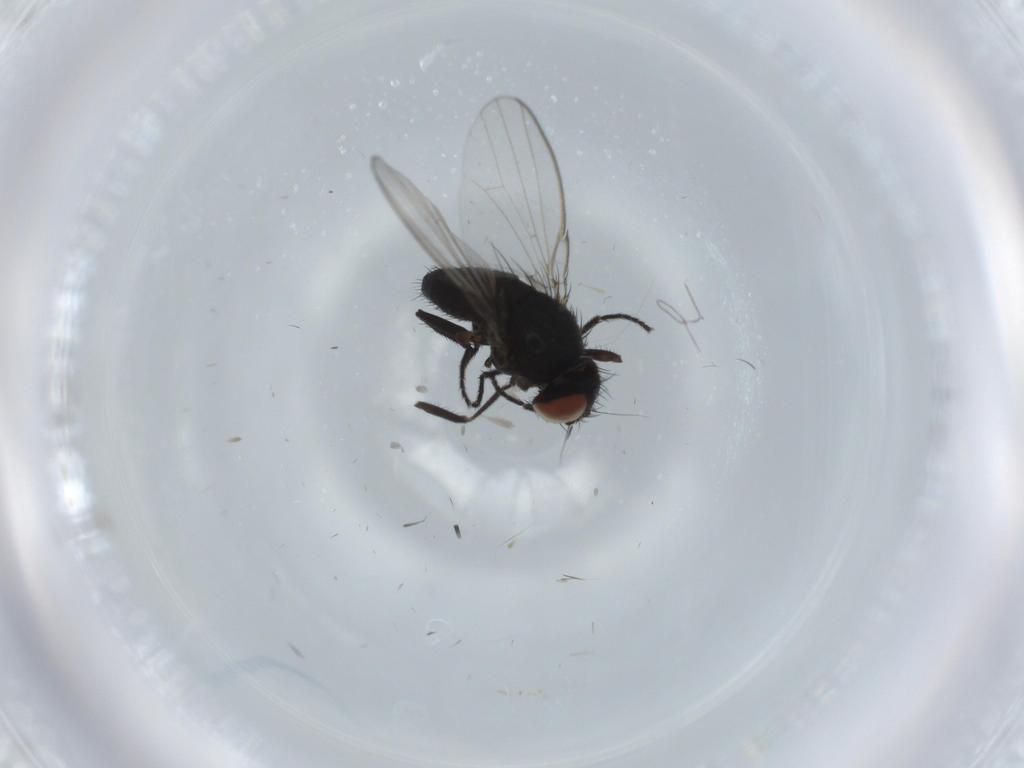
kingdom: Animalia
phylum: Arthropoda
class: Insecta
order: Diptera
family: Milichiidae
